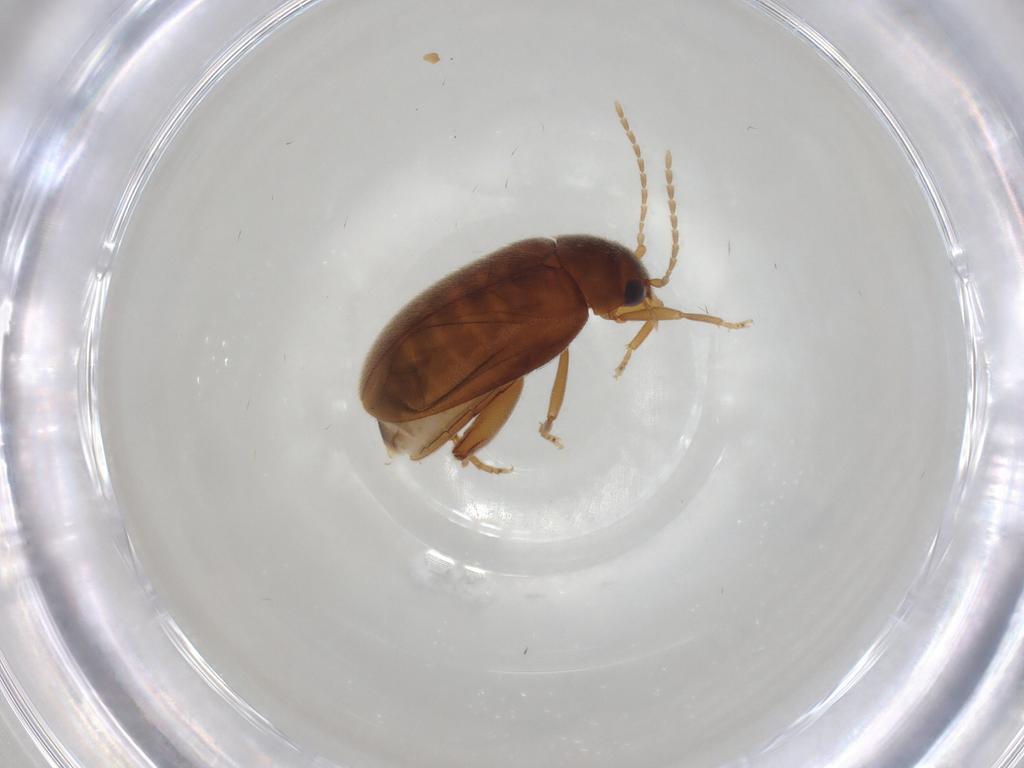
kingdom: Animalia
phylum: Arthropoda
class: Insecta
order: Coleoptera
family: Scirtidae
